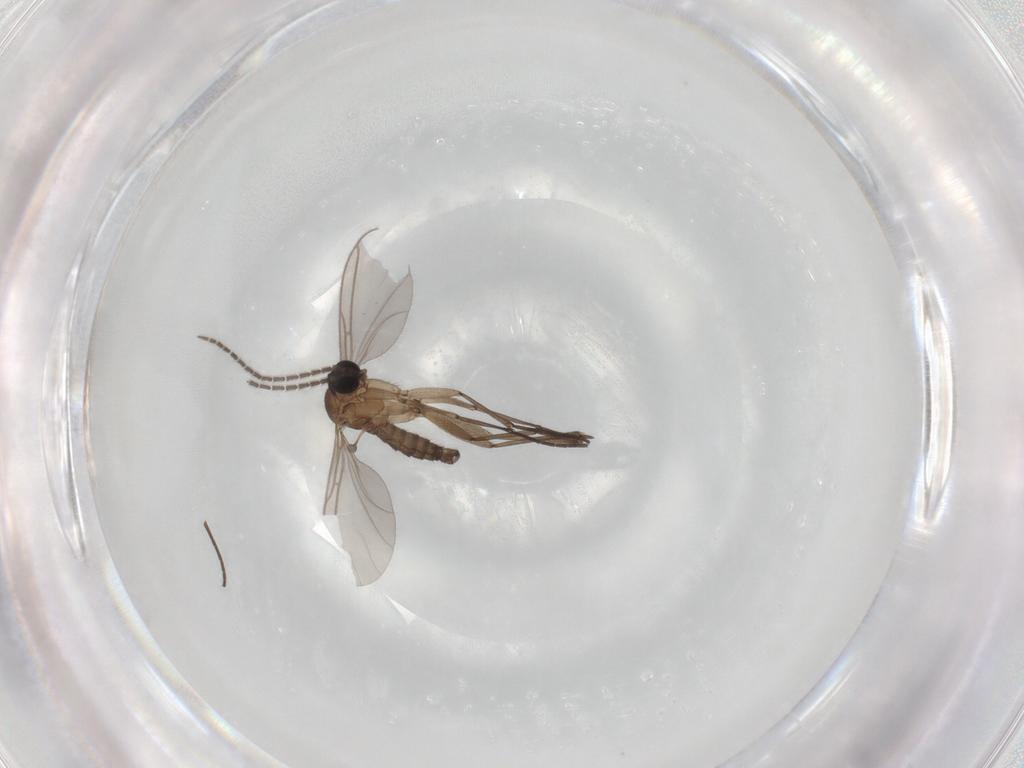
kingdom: Animalia
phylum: Arthropoda
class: Insecta
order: Diptera
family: Sciaridae
